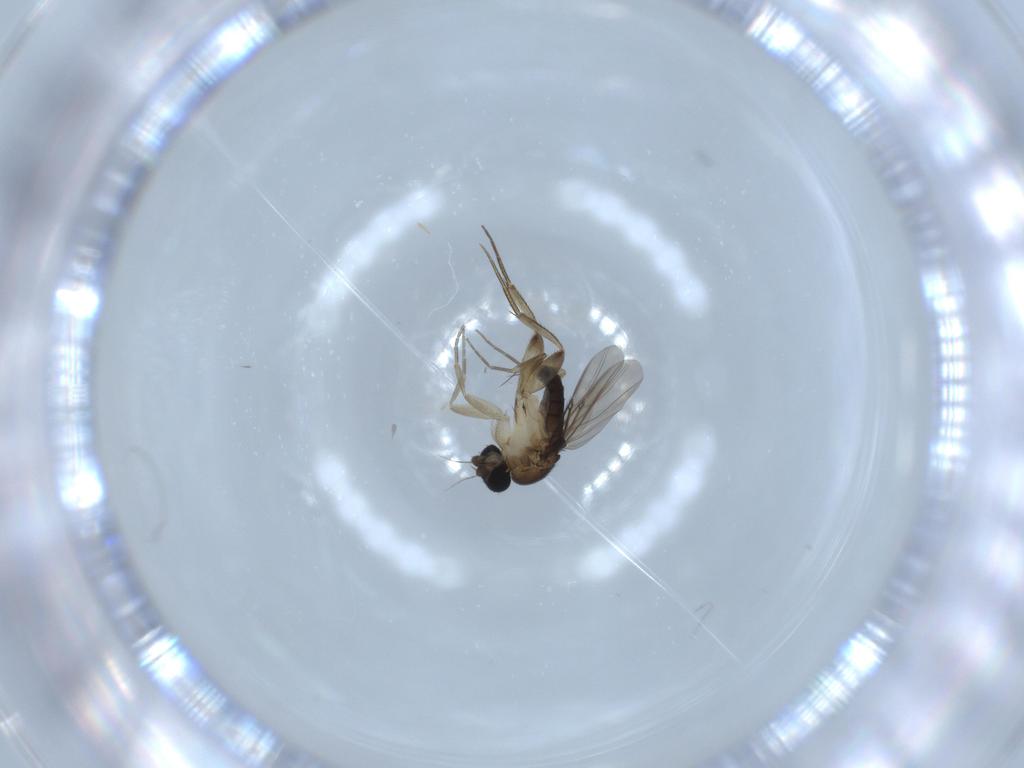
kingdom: Animalia
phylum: Arthropoda
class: Insecta
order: Diptera
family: Phoridae
